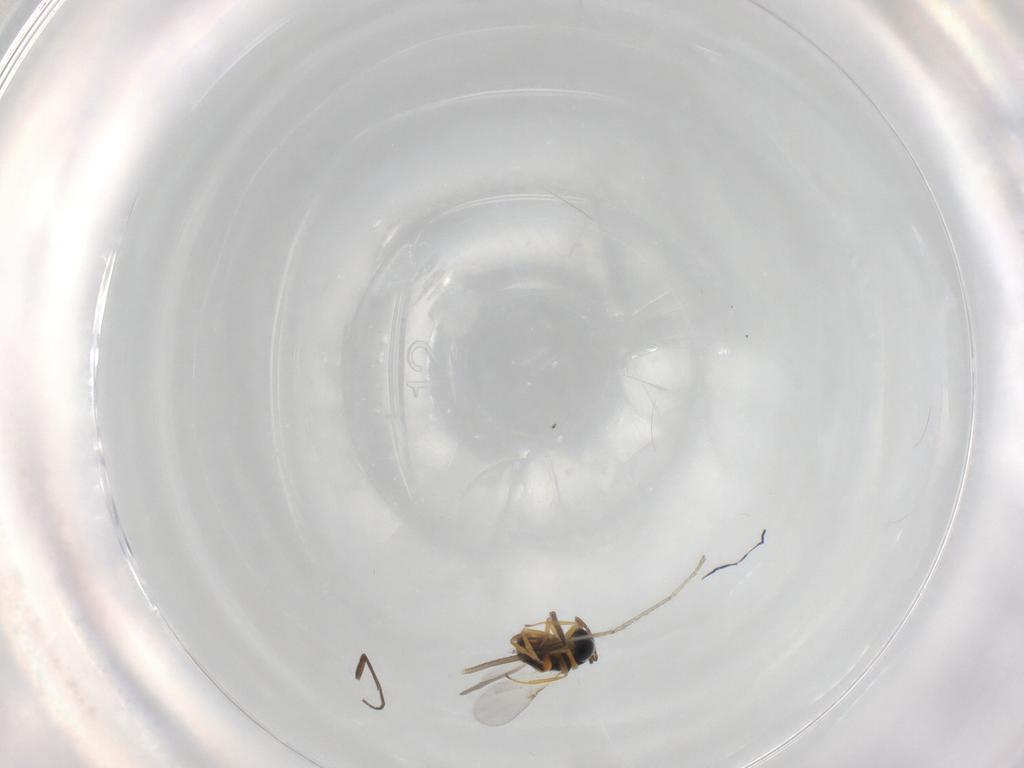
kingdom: Animalia
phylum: Arthropoda
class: Insecta
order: Hymenoptera
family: Encyrtidae
